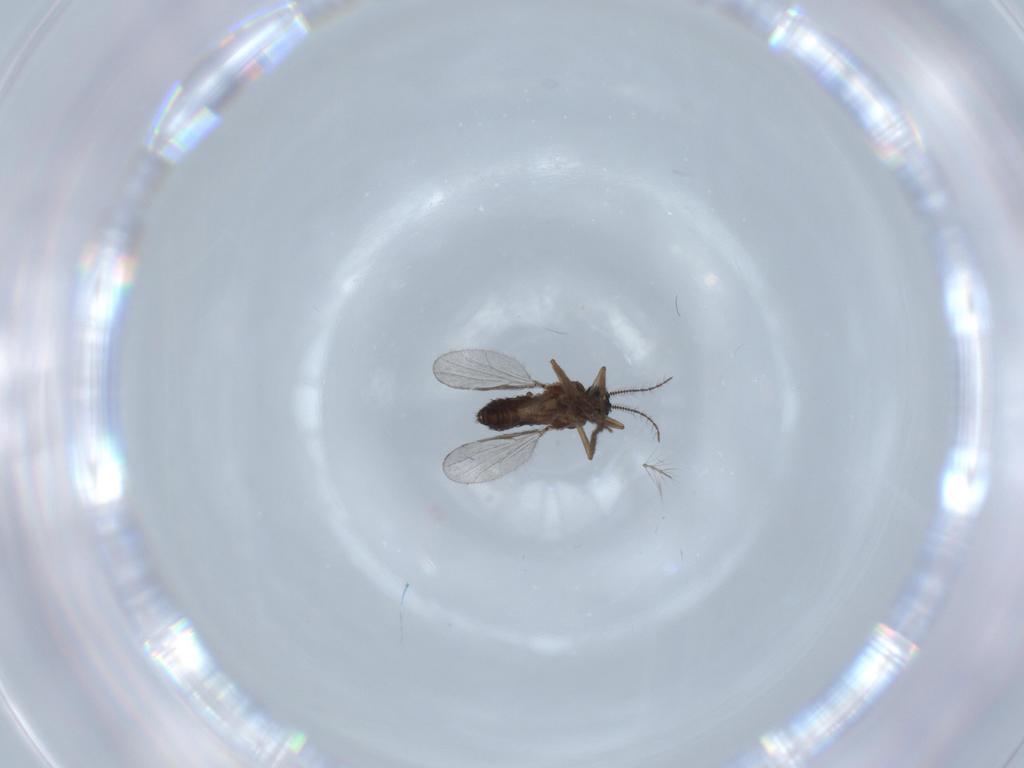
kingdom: Animalia
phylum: Arthropoda
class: Insecta
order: Diptera
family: Chironomidae
